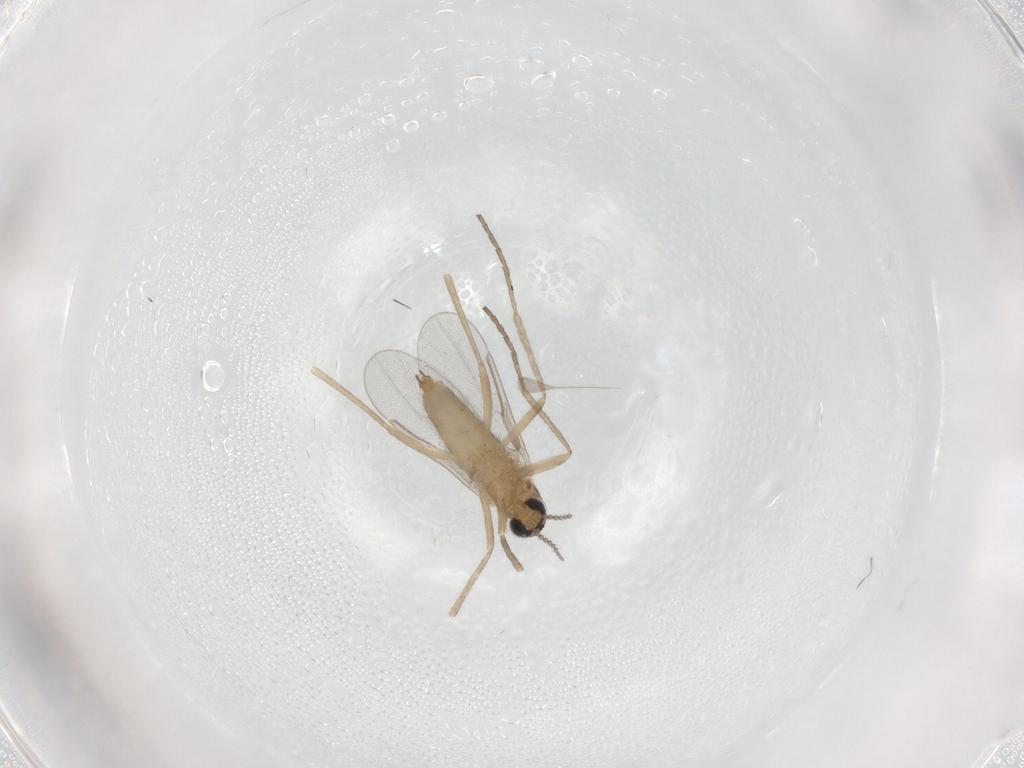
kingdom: Animalia
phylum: Arthropoda
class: Insecta
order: Diptera
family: Cecidomyiidae
